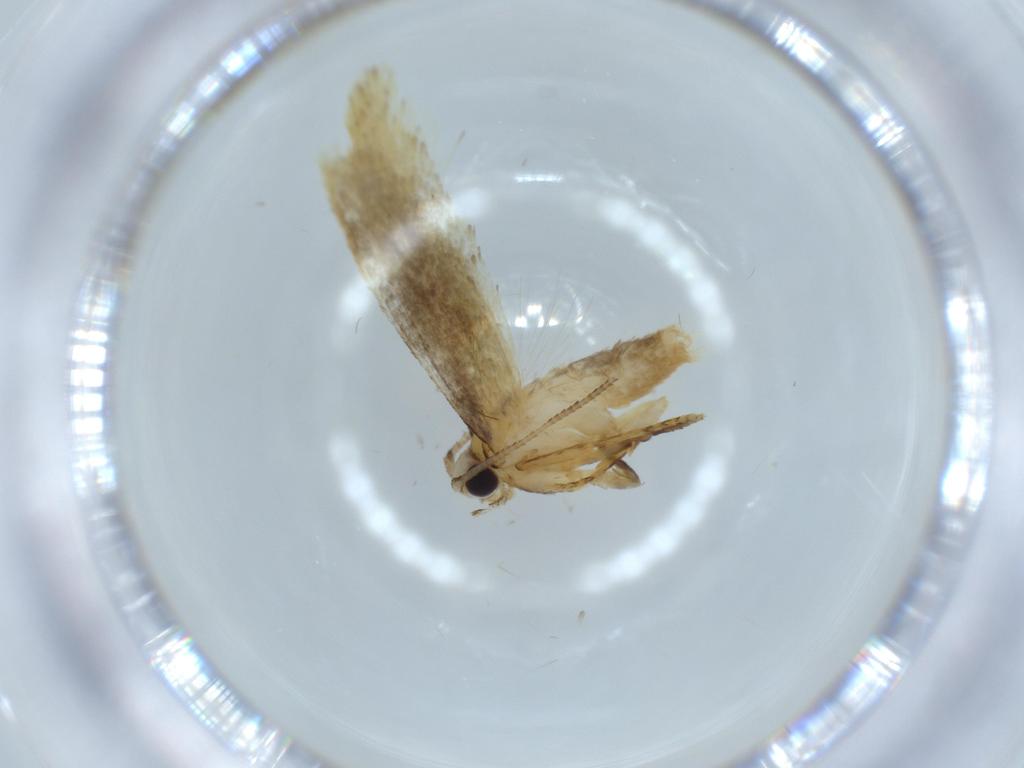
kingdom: Animalia
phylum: Arthropoda
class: Insecta
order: Lepidoptera
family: Tineidae
